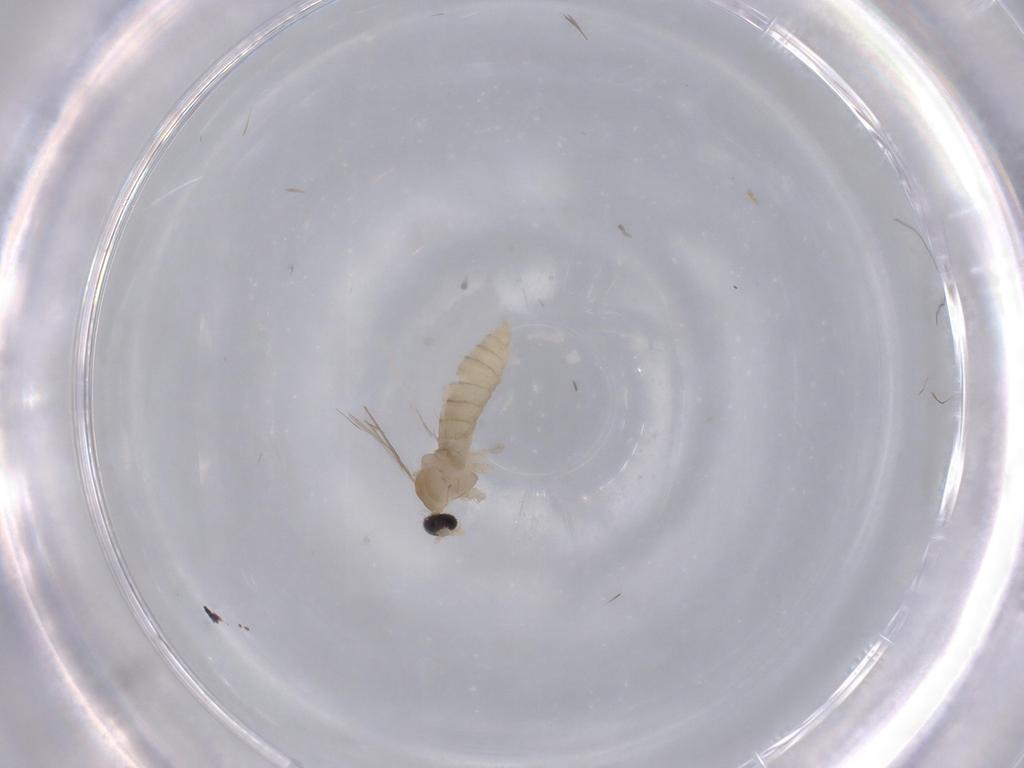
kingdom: Animalia
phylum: Arthropoda
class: Insecta
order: Diptera
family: Cecidomyiidae
